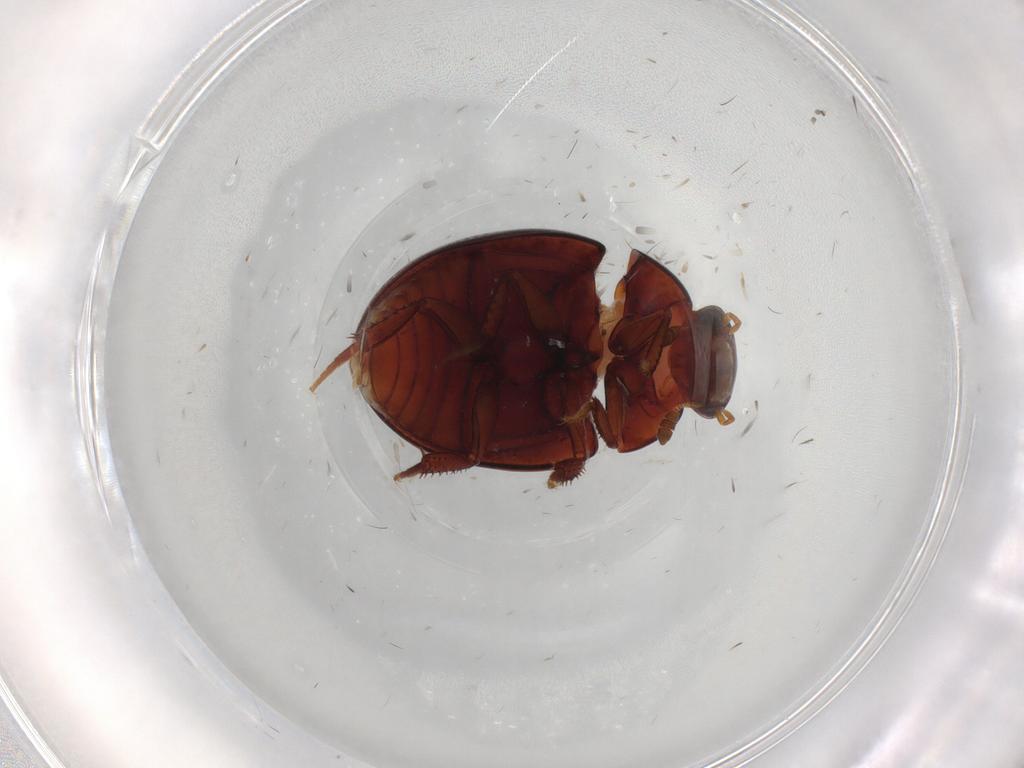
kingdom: Animalia
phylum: Arthropoda
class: Insecta
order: Coleoptera
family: Hydrophilidae
